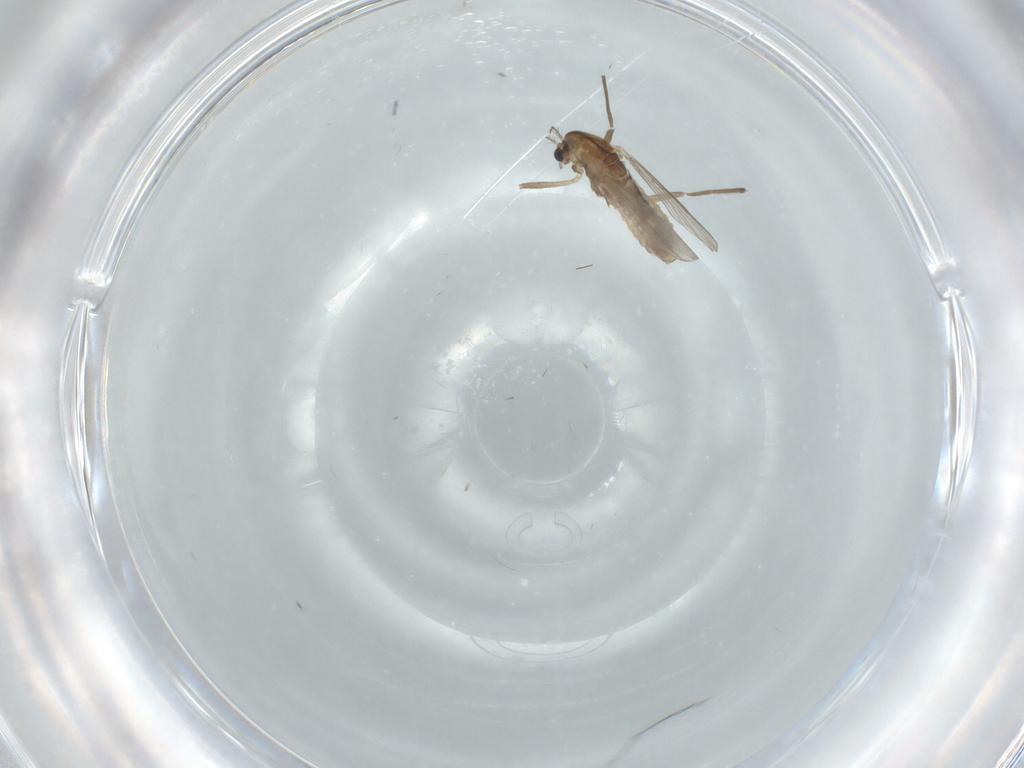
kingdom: Animalia
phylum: Arthropoda
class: Insecta
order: Diptera
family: Chironomidae
